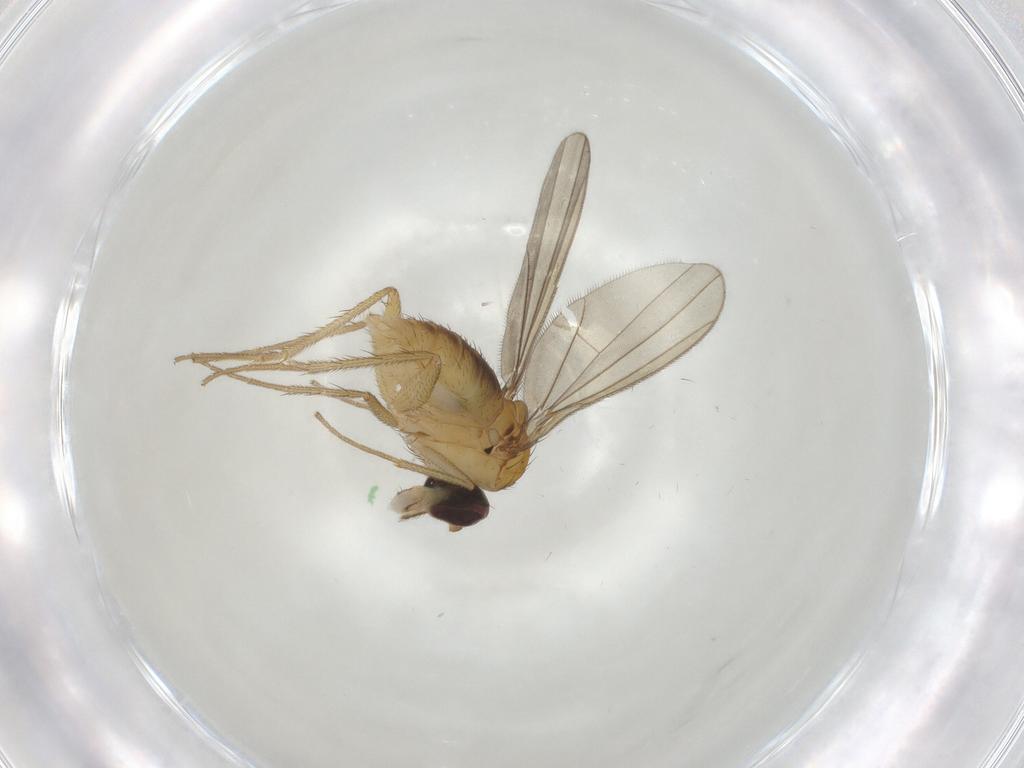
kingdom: Animalia
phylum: Arthropoda
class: Insecta
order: Diptera
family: Dolichopodidae
